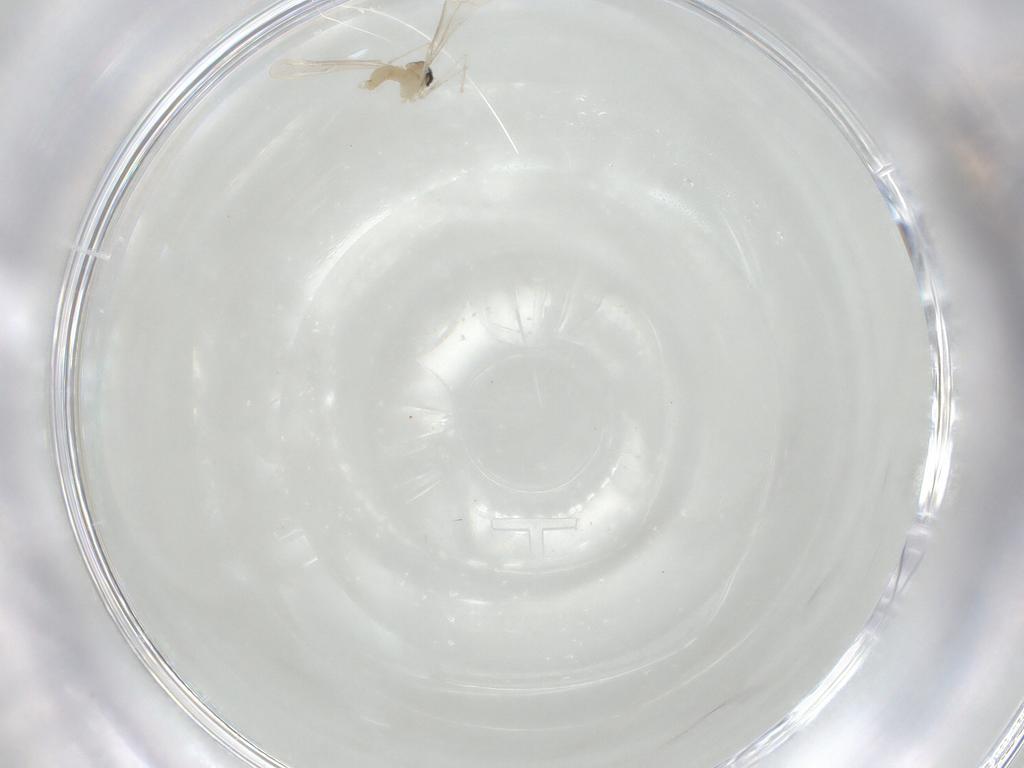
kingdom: Animalia
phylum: Arthropoda
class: Insecta
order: Diptera
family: Cecidomyiidae
